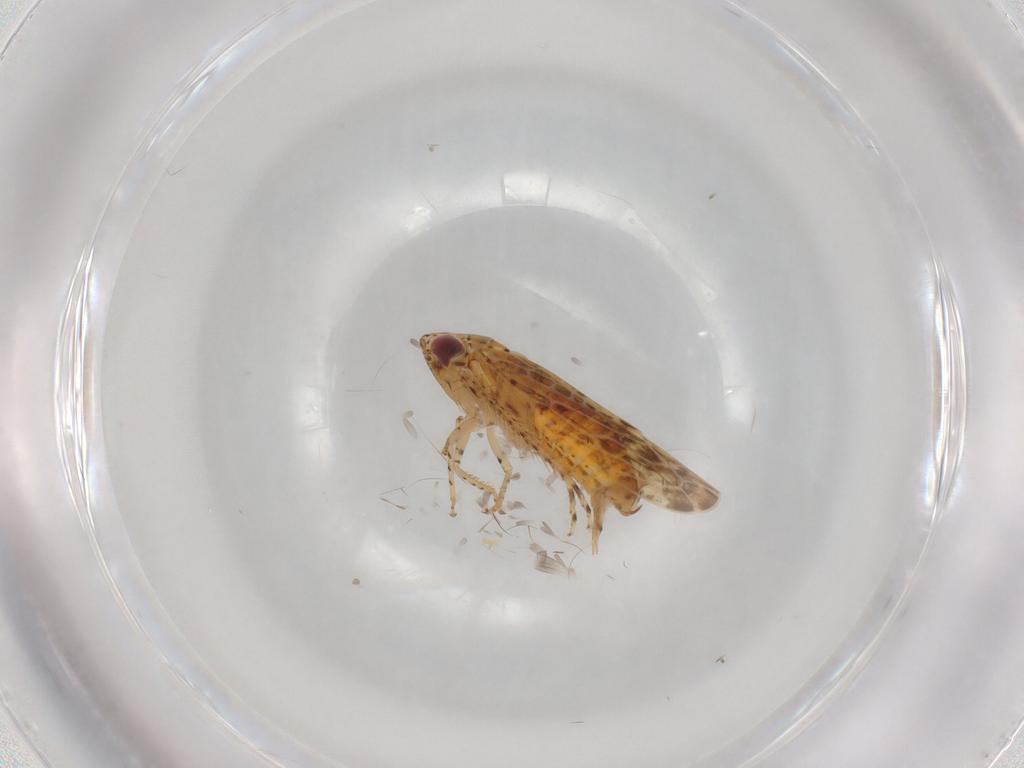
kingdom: Animalia
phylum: Arthropoda
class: Insecta
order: Hemiptera
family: Cicadellidae
